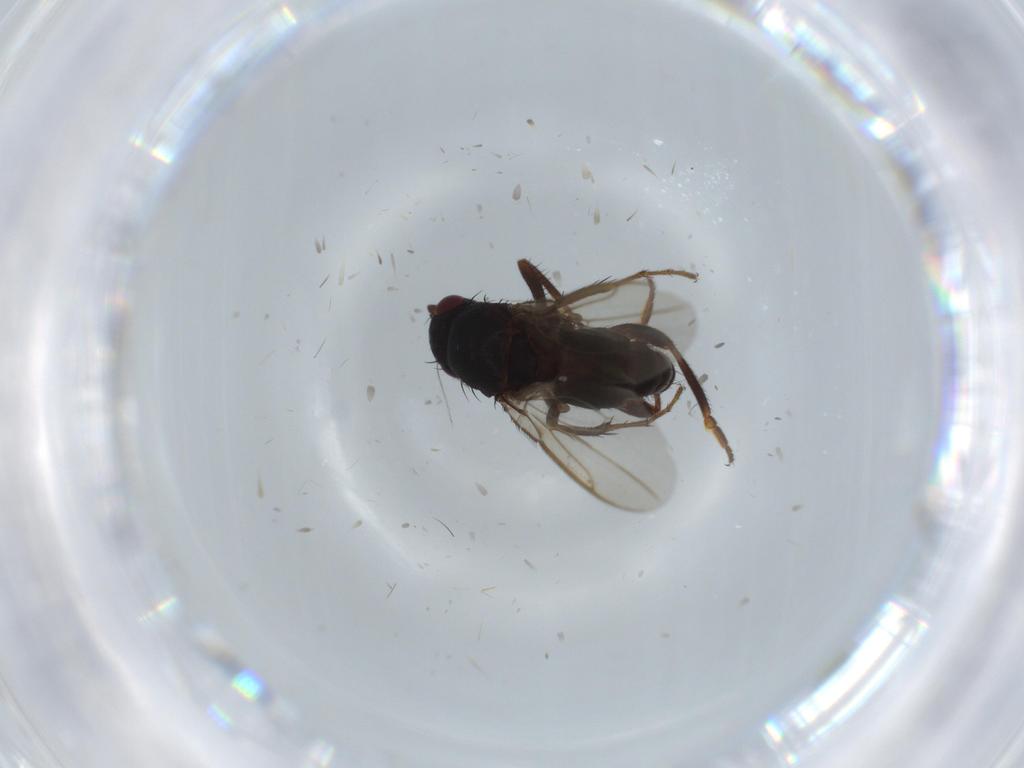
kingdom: Animalia
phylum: Arthropoda
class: Insecta
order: Diptera
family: Sphaeroceridae
